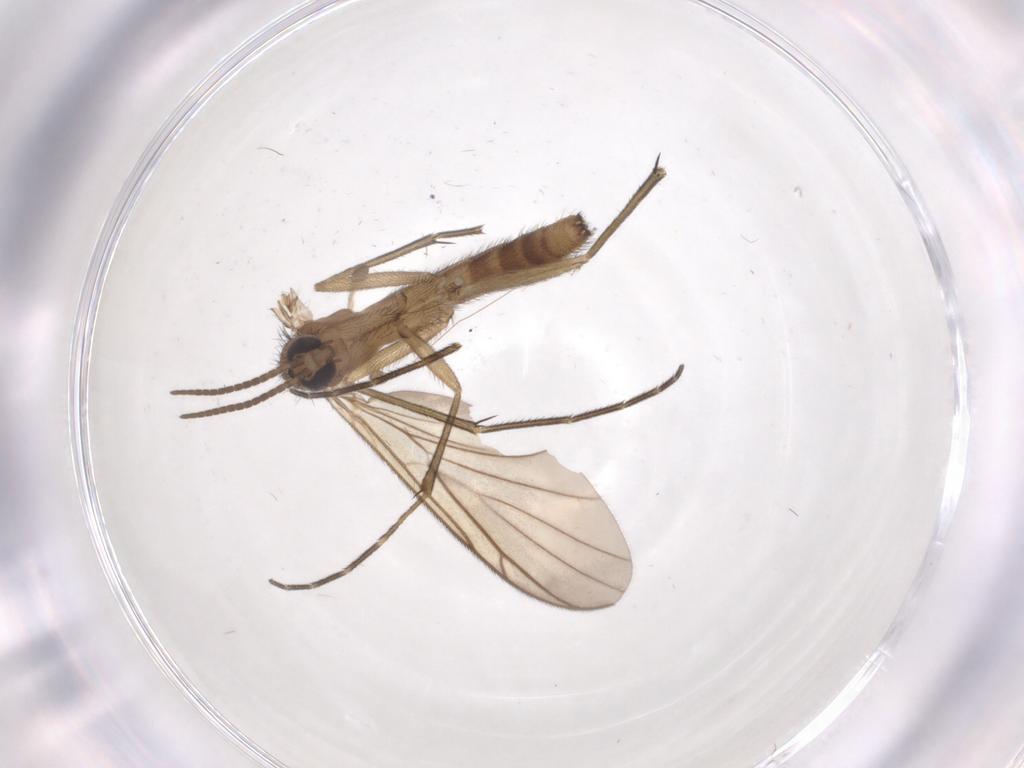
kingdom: Animalia
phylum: Arthropoda
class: Insecta
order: Diptera
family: Keroplatidae
